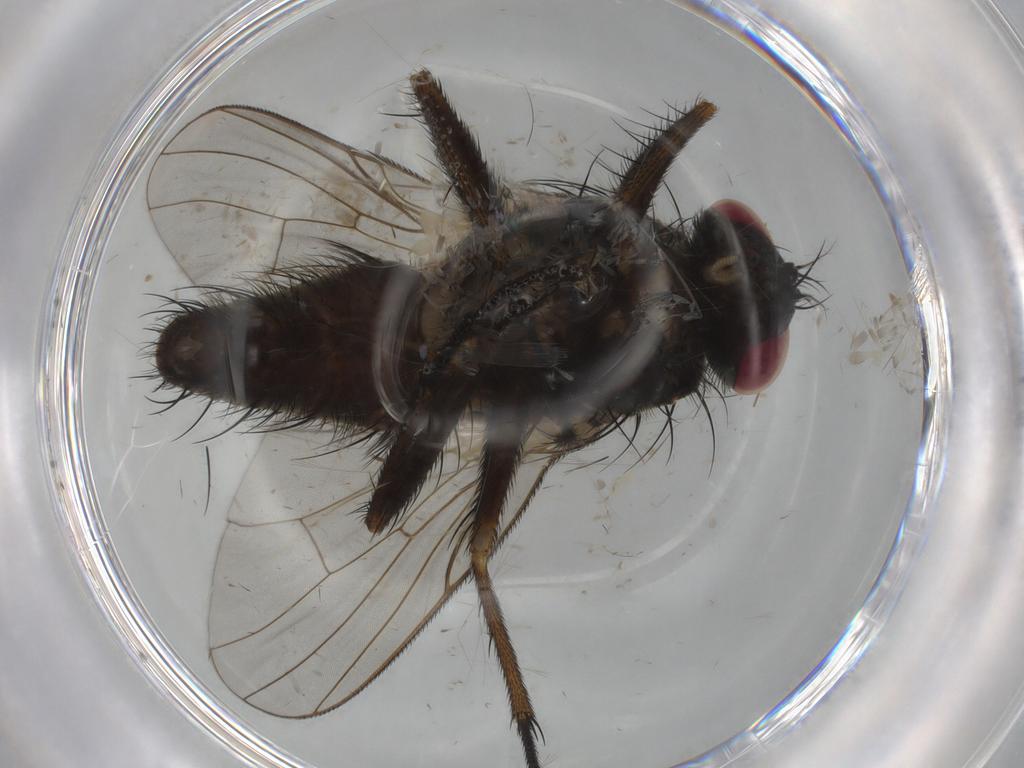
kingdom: Animalia
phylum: Arthropoda
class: Insecta
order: Diptera
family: Muscidae
